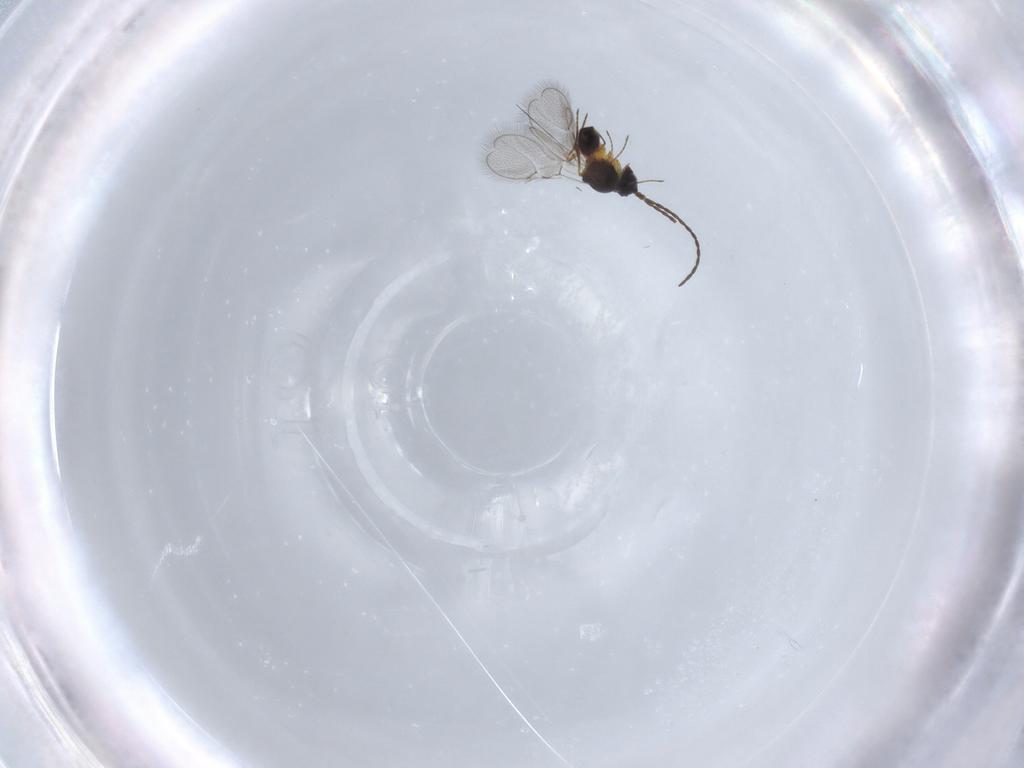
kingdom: Animalia
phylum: Arthropoda
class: Insecta
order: Hymenoptera
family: Figitidae
